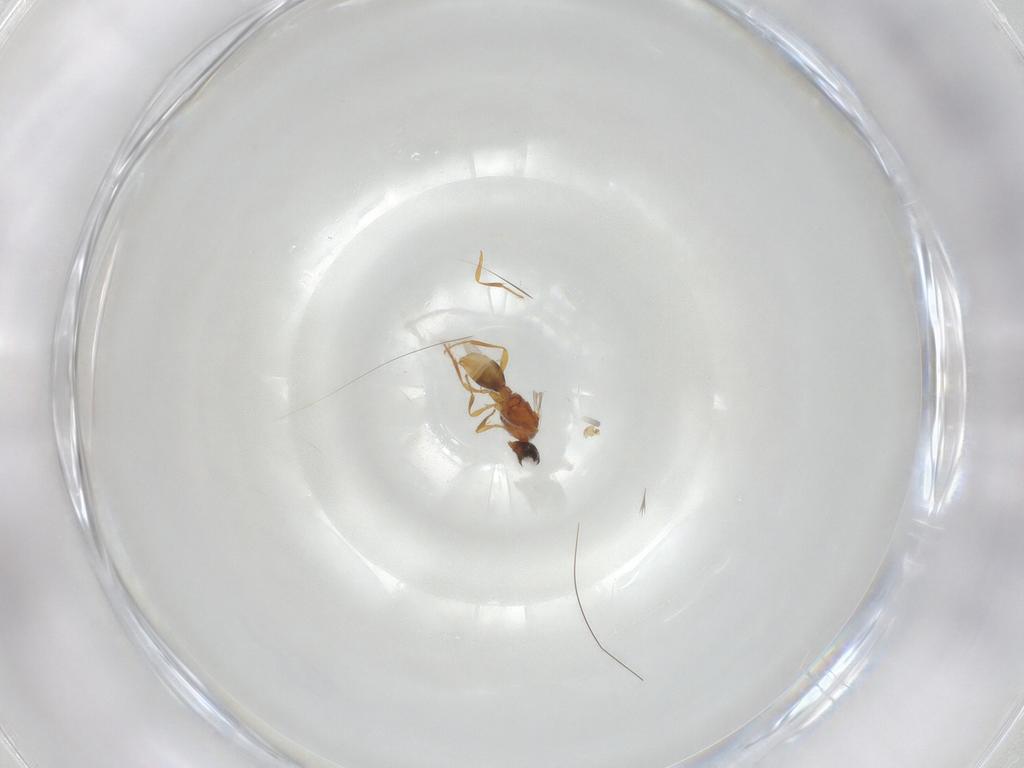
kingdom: Animalia
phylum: Arthropoda
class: Insecta
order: Hymenoptera
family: Diapriidae
